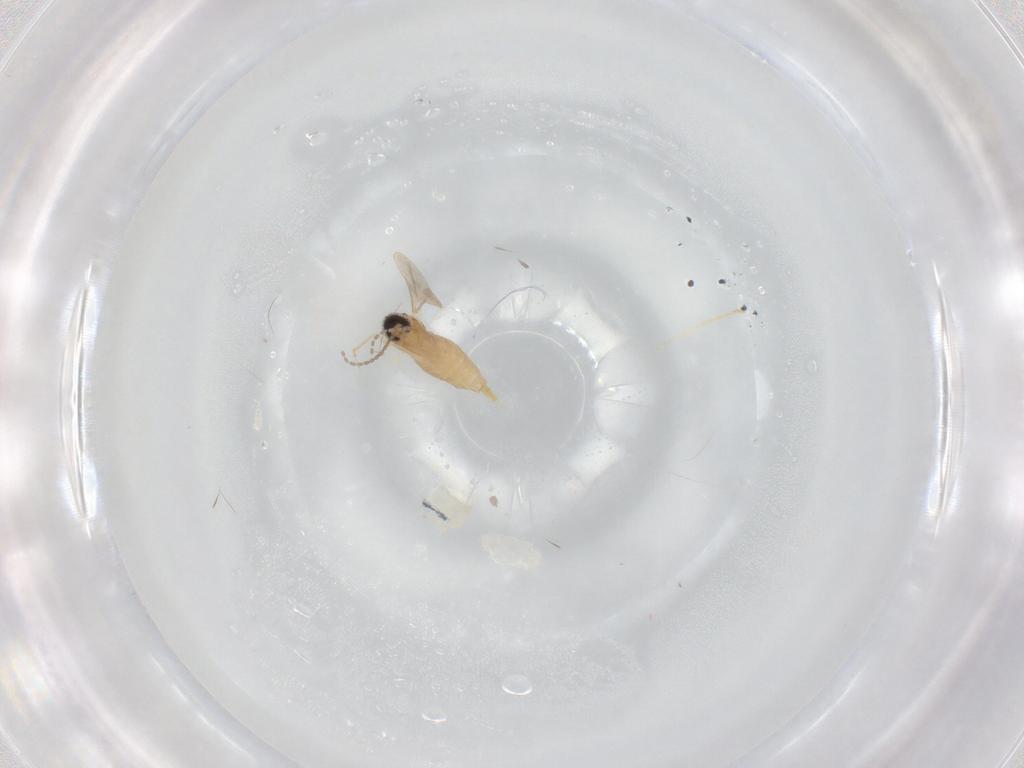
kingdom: Animalia
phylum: Arthropoda
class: Insecta
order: Diptera
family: Cecidomyiidae
